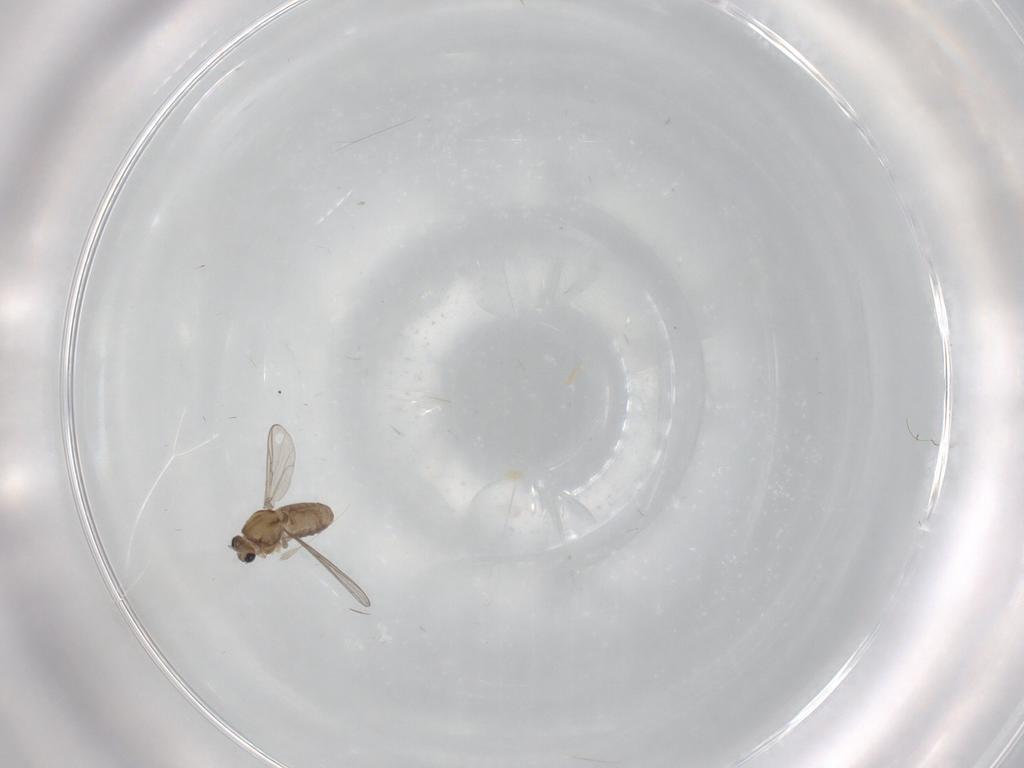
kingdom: Animalia
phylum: Arthropoda
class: Insecta
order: Diptera
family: Chironomidae
